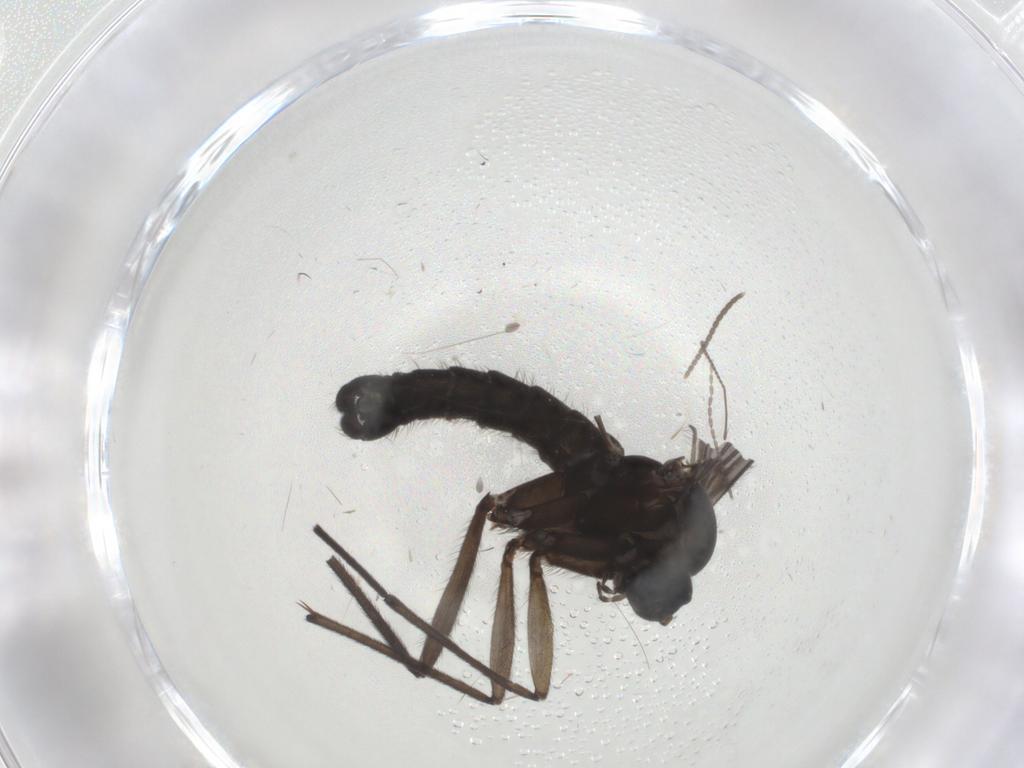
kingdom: Animalia
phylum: Arthropoda
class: Insecta
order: Diptera
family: Sciaridae
